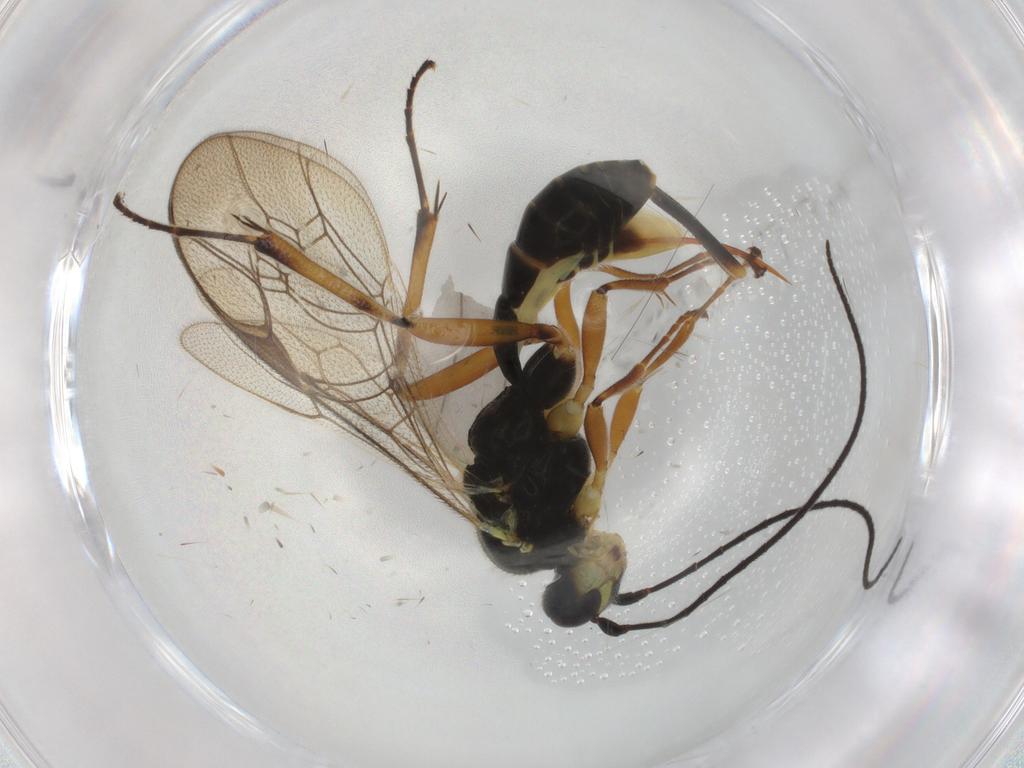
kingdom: Animalia
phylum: Arthropoda
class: Insecta
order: Hymenoptera
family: Ichneumonidae
